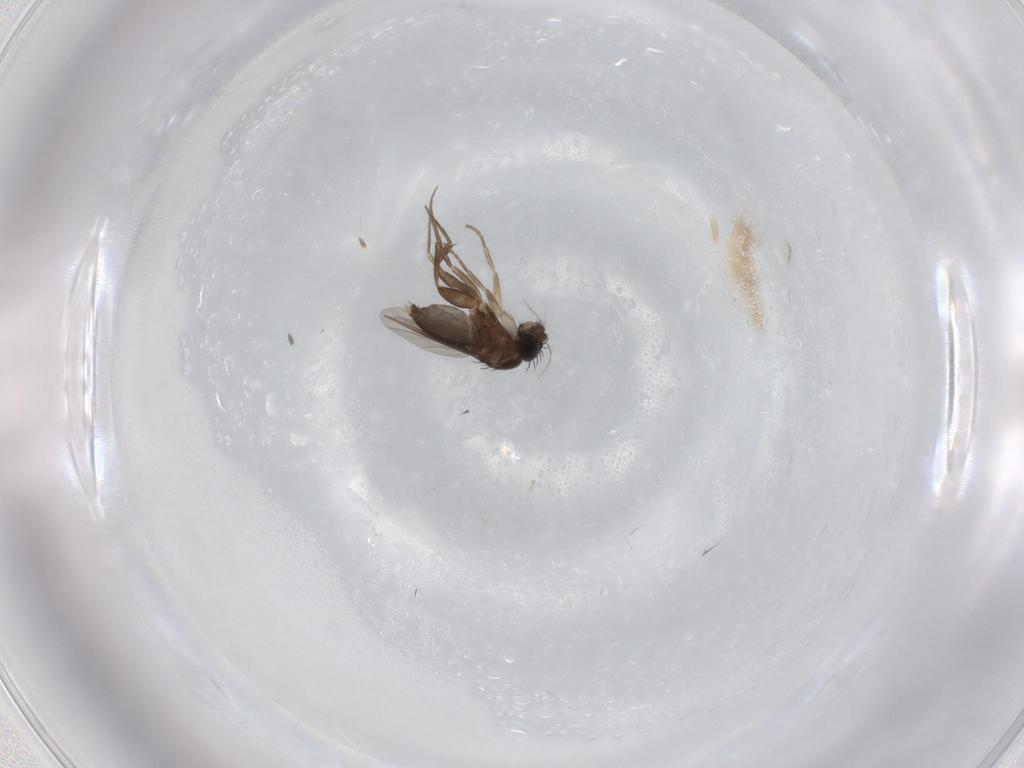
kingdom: Animalia
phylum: Arthropoda
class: Insecta
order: Diptera
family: Phoridae
